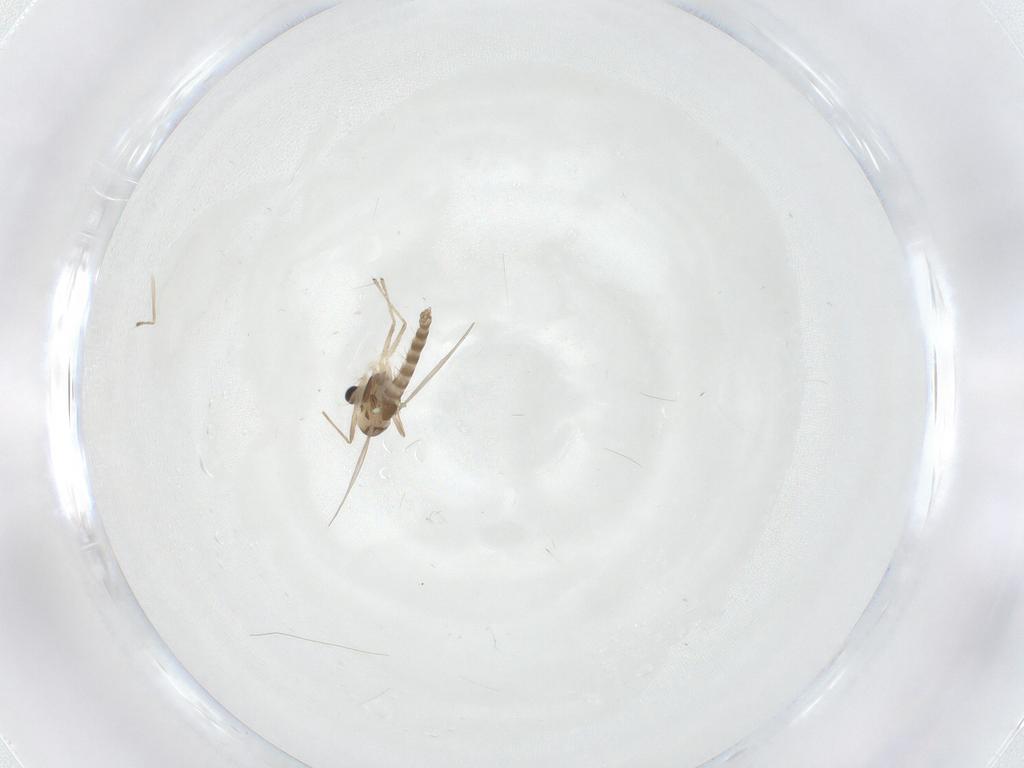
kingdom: Animalia
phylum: Arthropoda
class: Insecta
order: Diptera
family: Chironomidae
